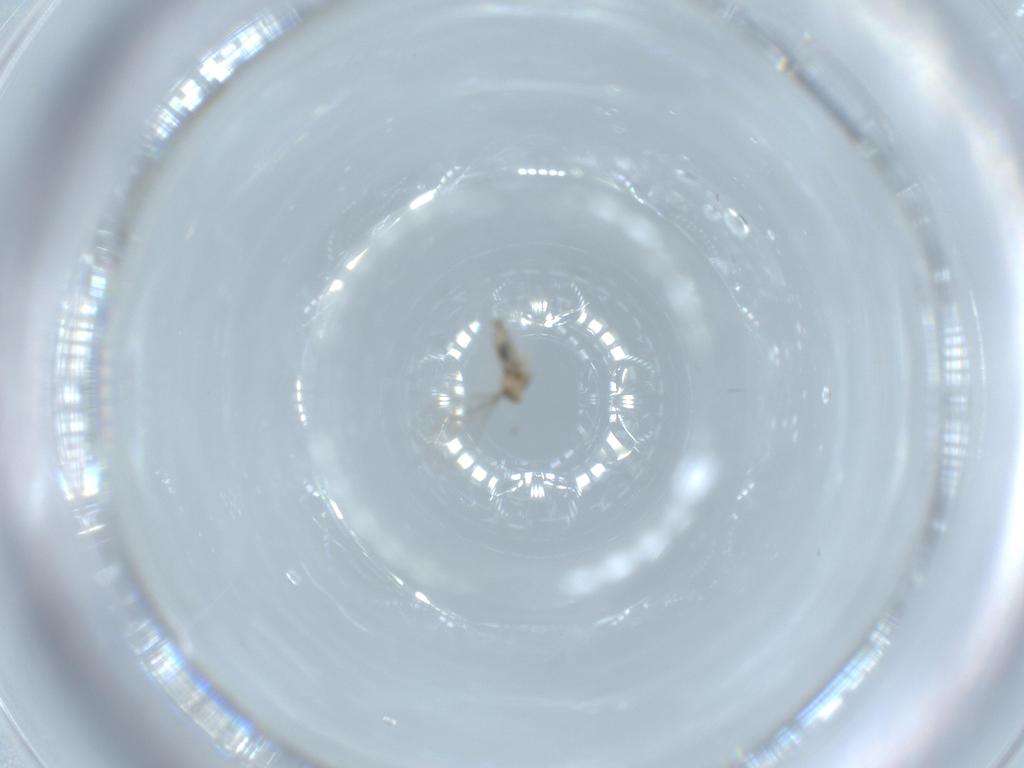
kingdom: Animalia
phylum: Arthropoda
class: Insecta
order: Diptera
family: Cecidomyiidae
